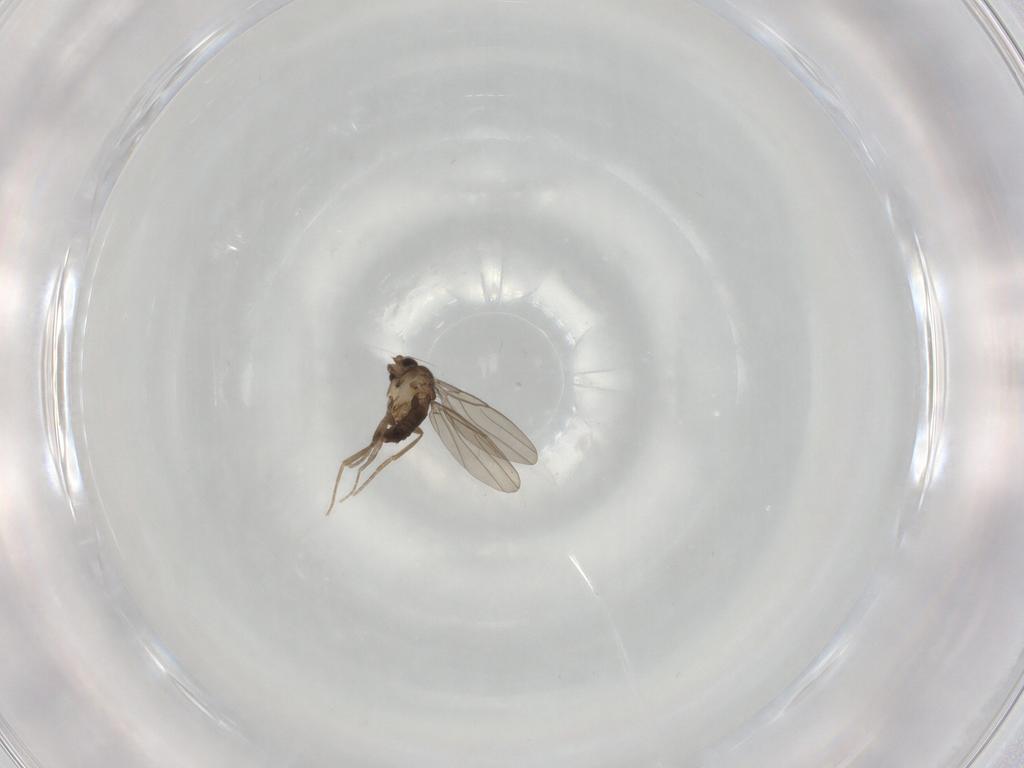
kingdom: Animalia
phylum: Arthropoda
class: Insecta
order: Diptera
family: Phoridae
